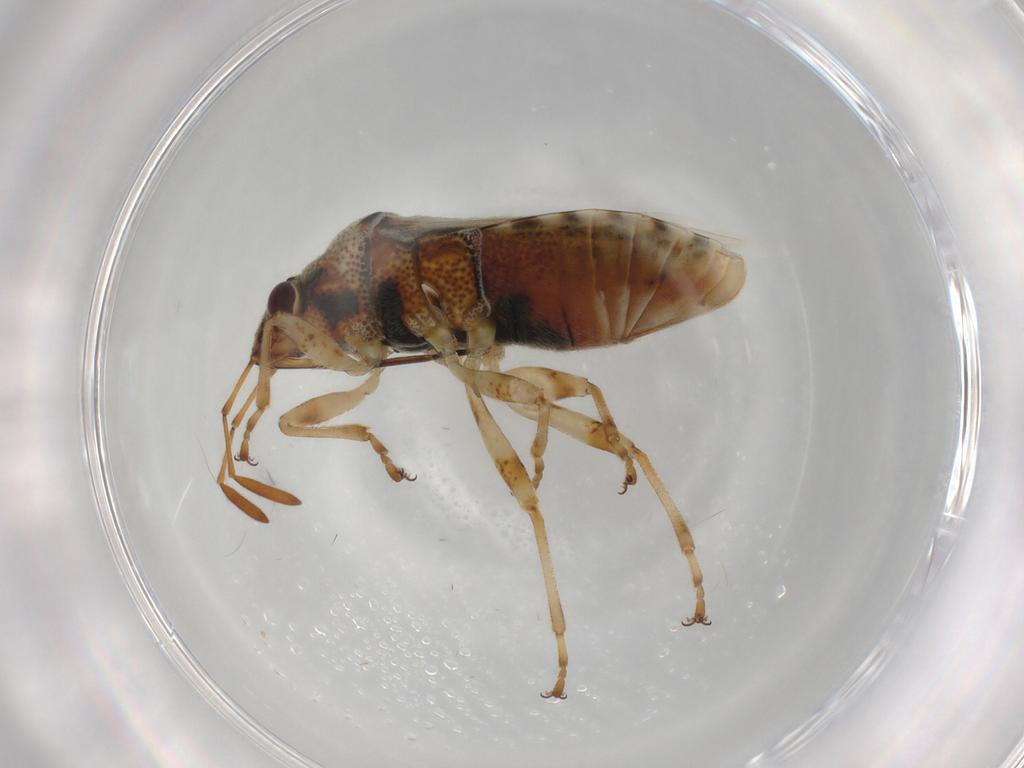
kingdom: Animalia
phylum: Arthropoda
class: Insecta
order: Hemiptera
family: Lygaeidae
